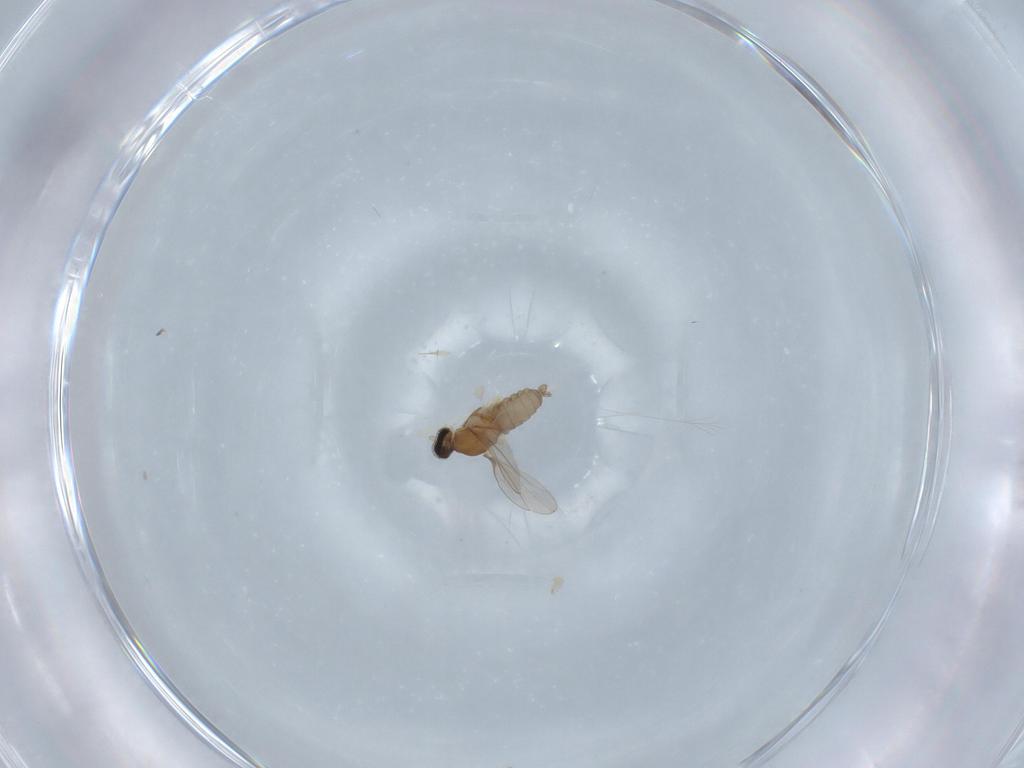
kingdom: Animalia
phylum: Arthropoda
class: Insecta
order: Diptera
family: Cecidomyiidae
